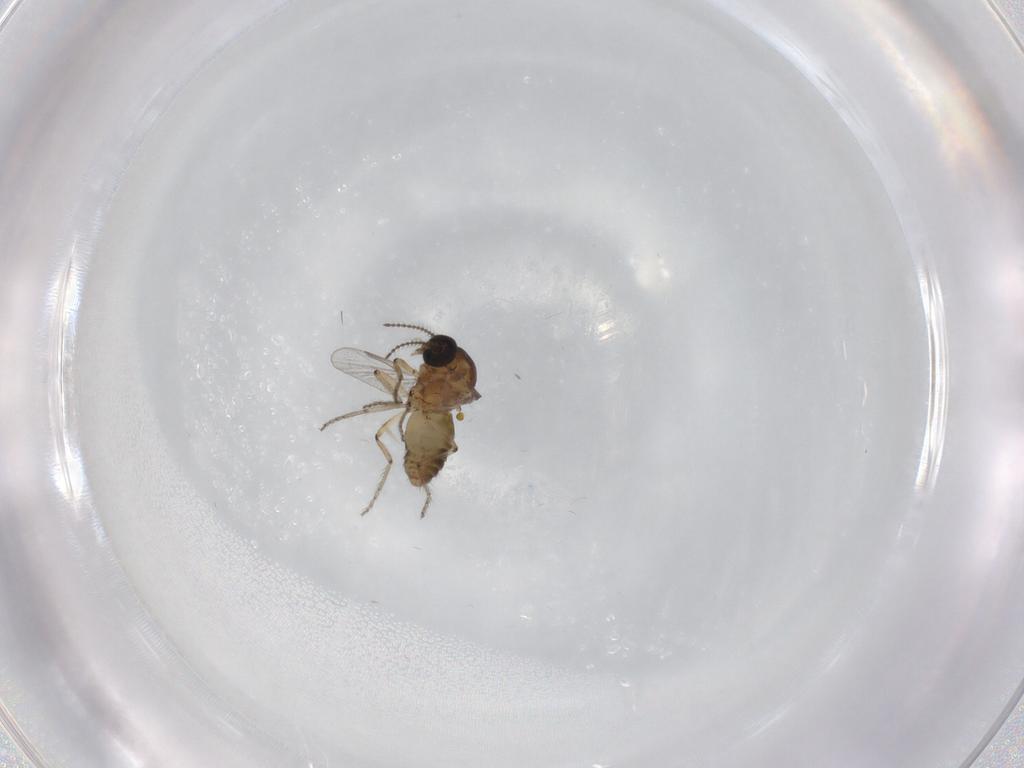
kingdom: Animalia
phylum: Arthropoda
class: Insecta
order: Diptera
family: Ceratopogonidae
